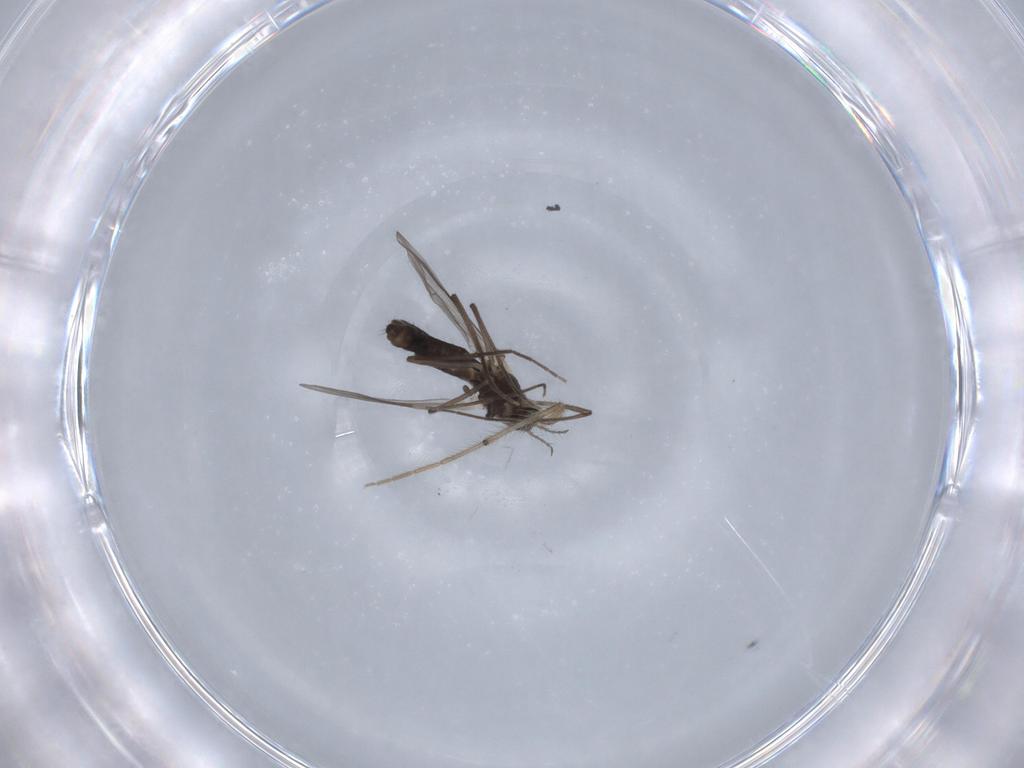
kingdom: Animalia
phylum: Arthropoda
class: Insecta
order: Diptera
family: Chironomidae
